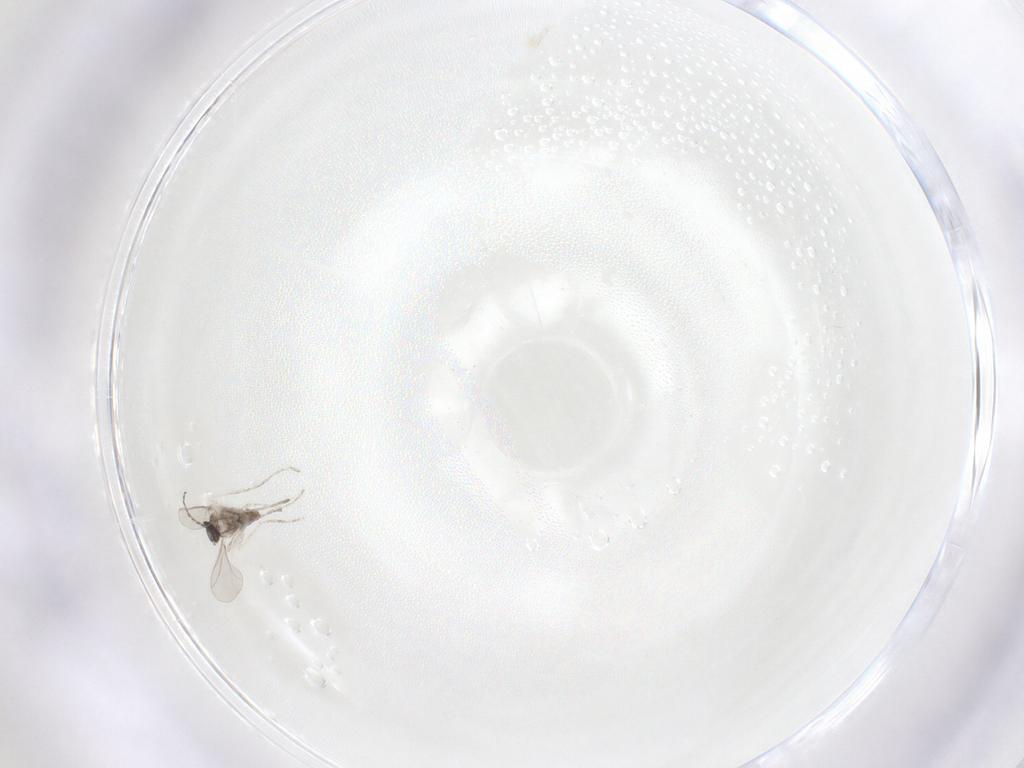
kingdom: Animalia
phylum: Arthropoda
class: Insecta
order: Diptera
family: Cecidomyiidae
